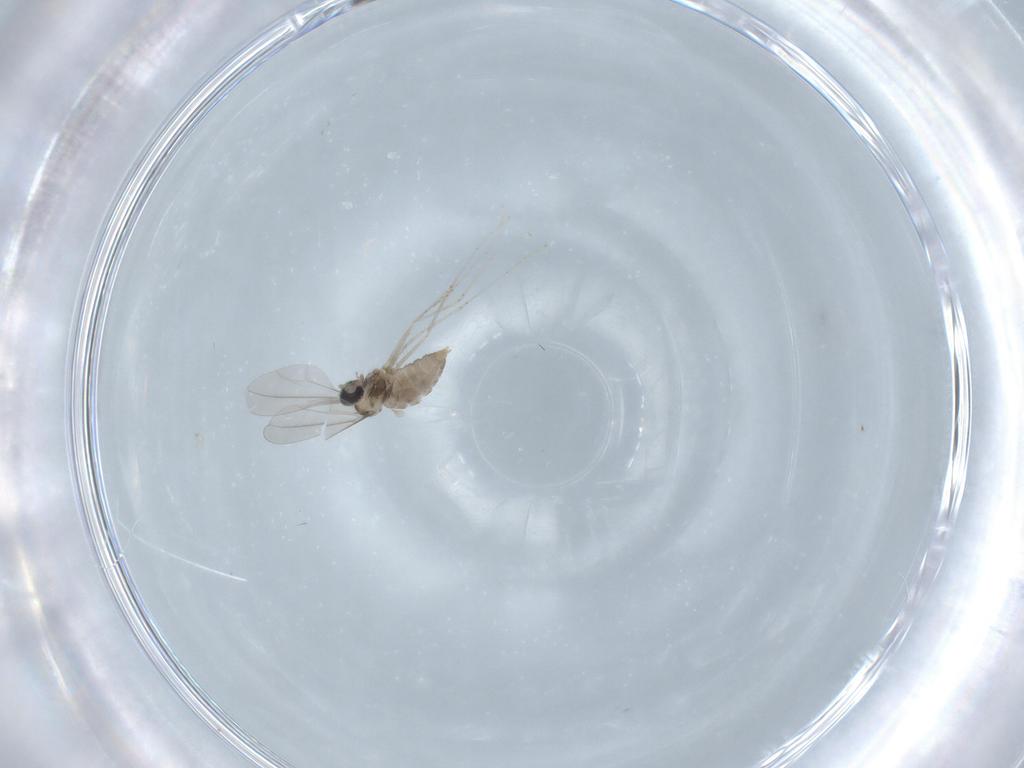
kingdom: Animalia
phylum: Arthropoda
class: Insecta
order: Diptera
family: Cecidomyiidae
